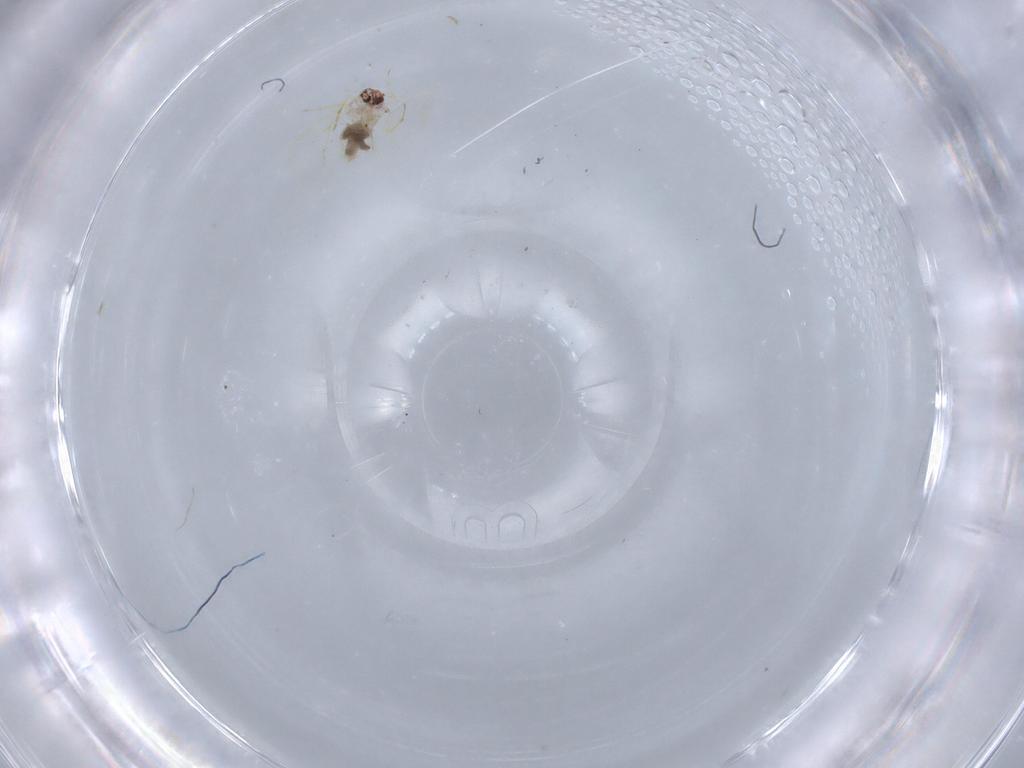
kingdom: Animalia
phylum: Arthropoda
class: Insecta
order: Hemiptera
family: Aleyrodidae
